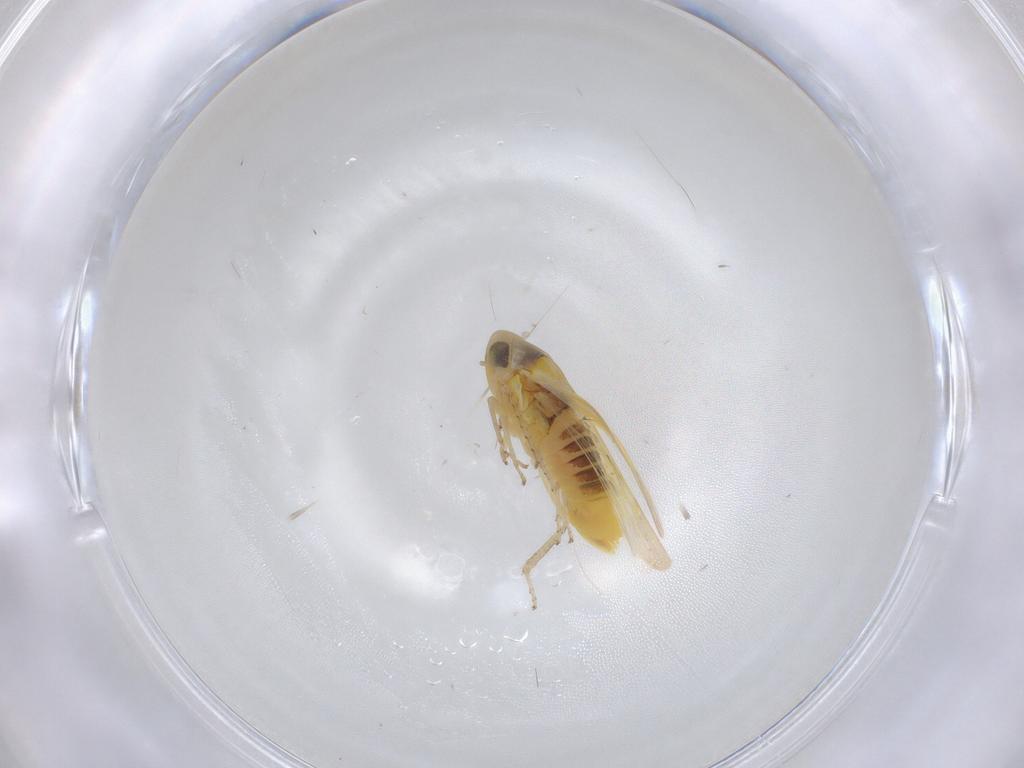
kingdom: Animalia
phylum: Arthropoda
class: Insecta
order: Hemiptera
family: Cicadellidae
